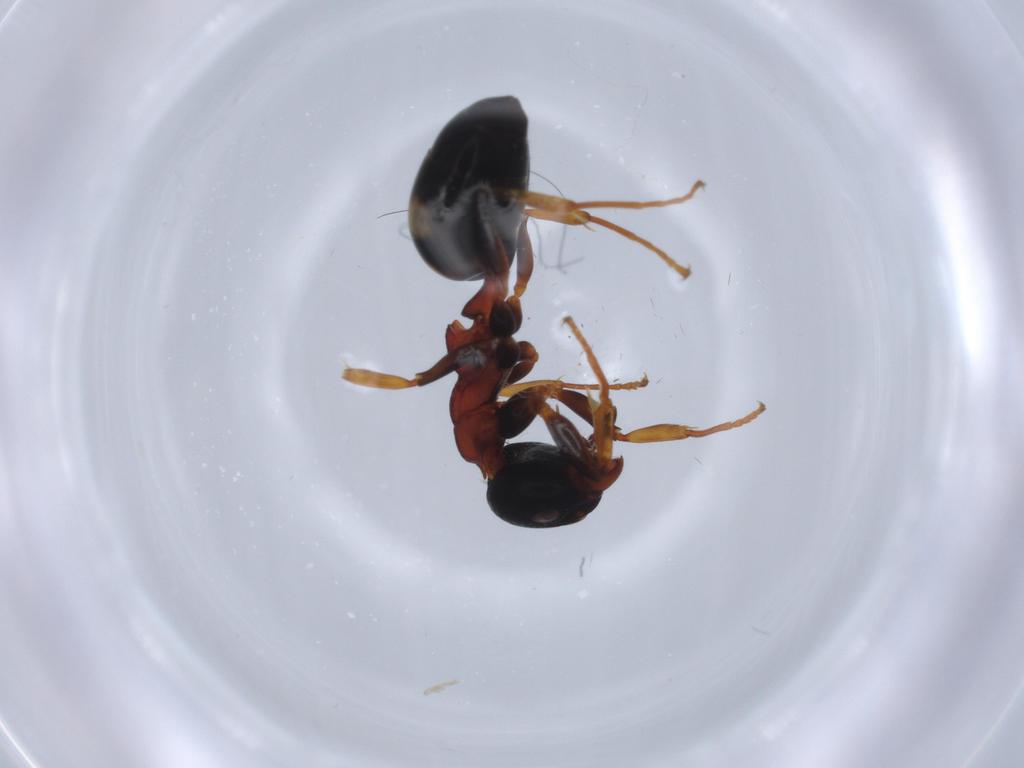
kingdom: Animalia
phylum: Arthropoda
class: Insecta
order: Hymenoptera
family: Formicidae
